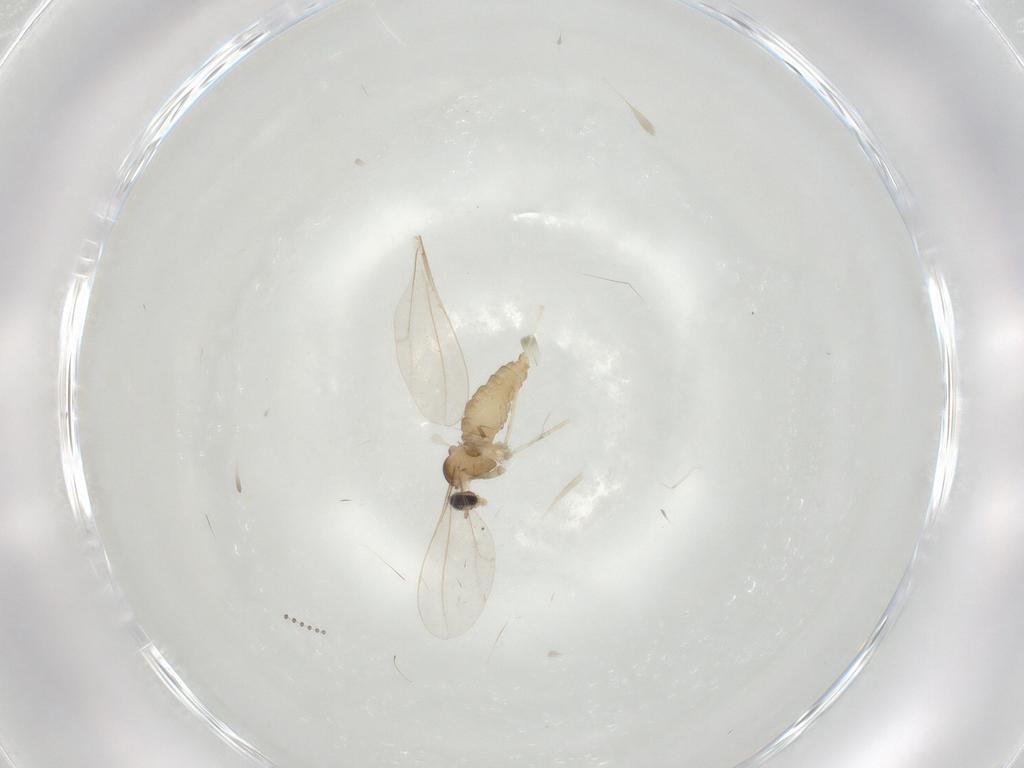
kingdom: Animalia
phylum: Arthropoda
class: Insecta
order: Diptera
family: Cecidomyiidae
